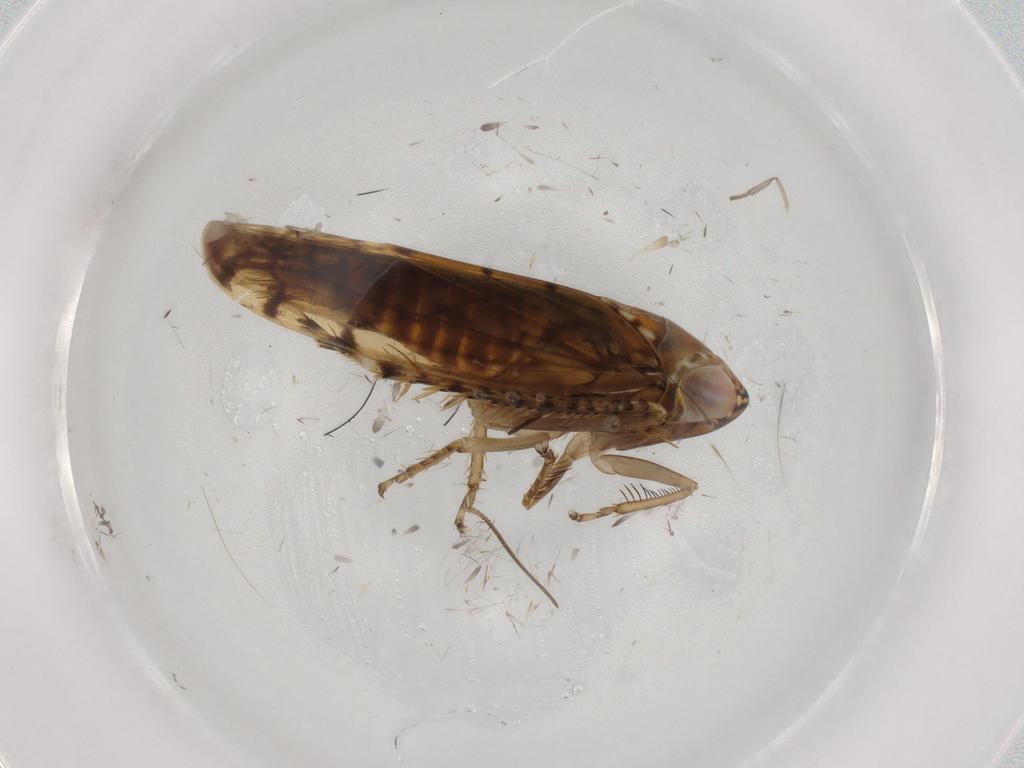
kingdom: Animalia
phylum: Arthropoda
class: Insecta
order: Hemiptera
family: Cicadellidae
